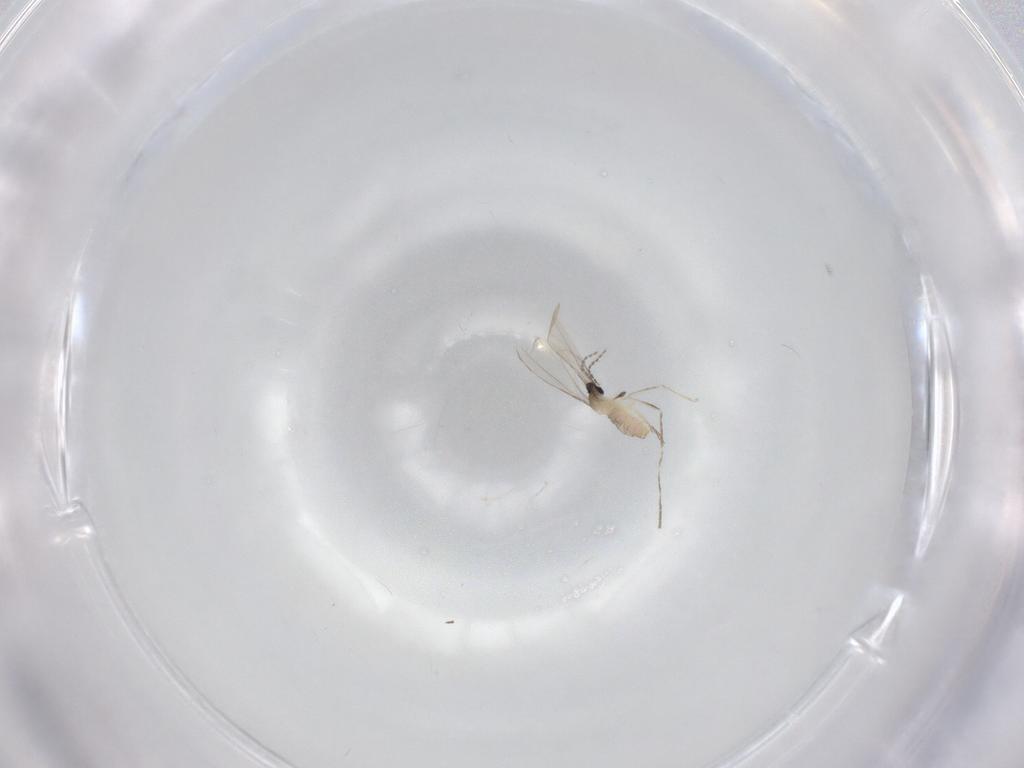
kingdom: Animalia
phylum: Arthropoda
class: Insecta
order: Diptera
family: Cecidomyiidae
